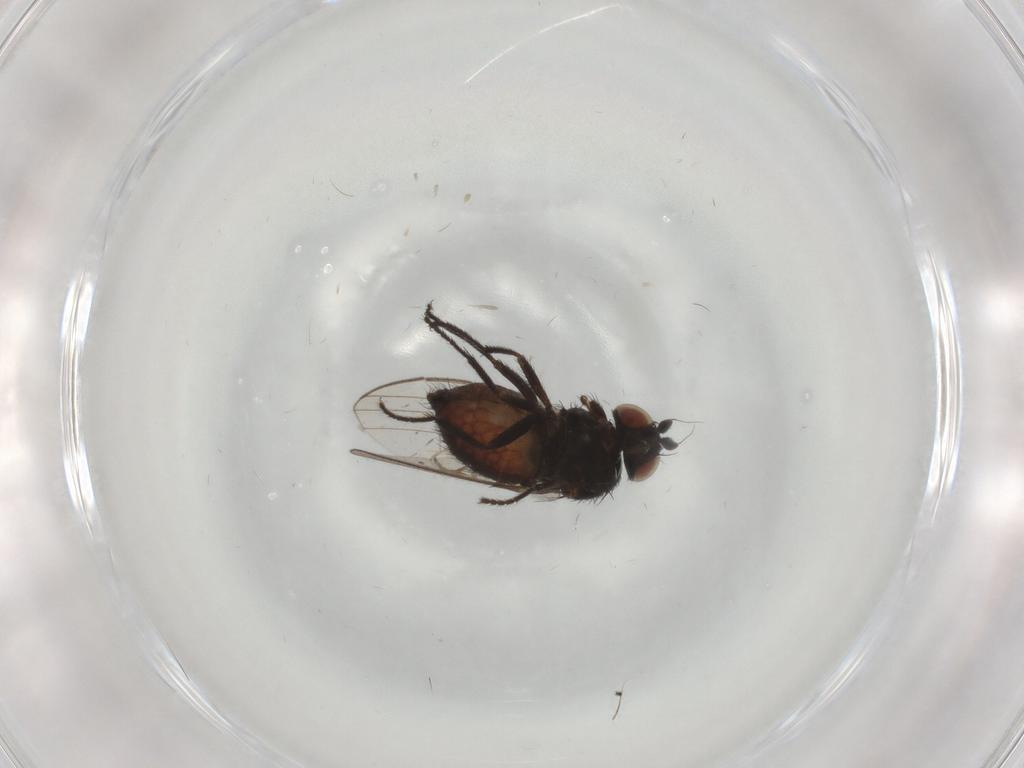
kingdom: Animalia
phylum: Arthropoda
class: Insecta
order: Diptera
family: Milichiidae
